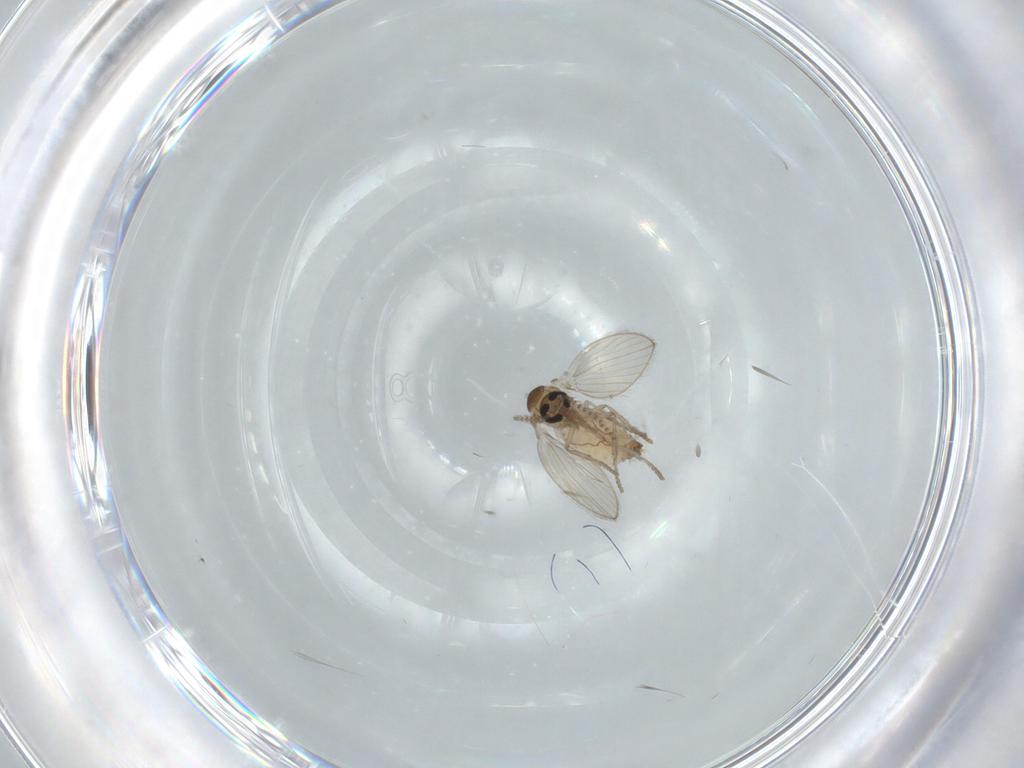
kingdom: Animalia
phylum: Arthropoda
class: Insecta
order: Diptera
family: Psychodidae
